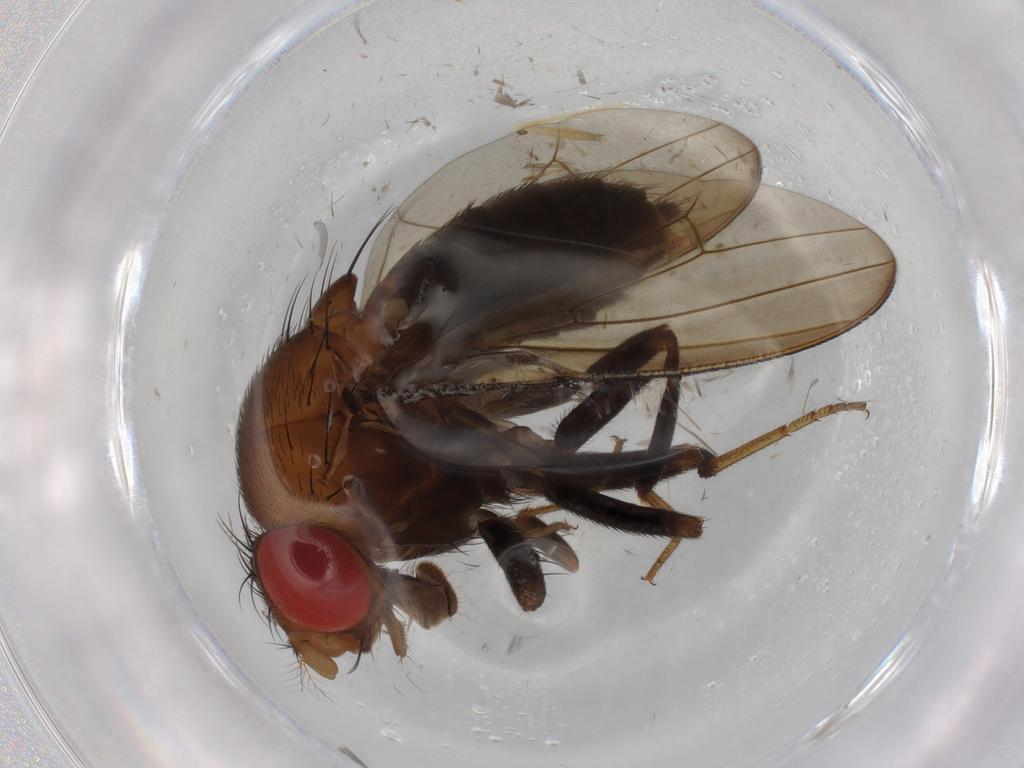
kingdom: Animalia
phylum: Arthropoda
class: Insecta
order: Diptera
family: Drosophilidae
